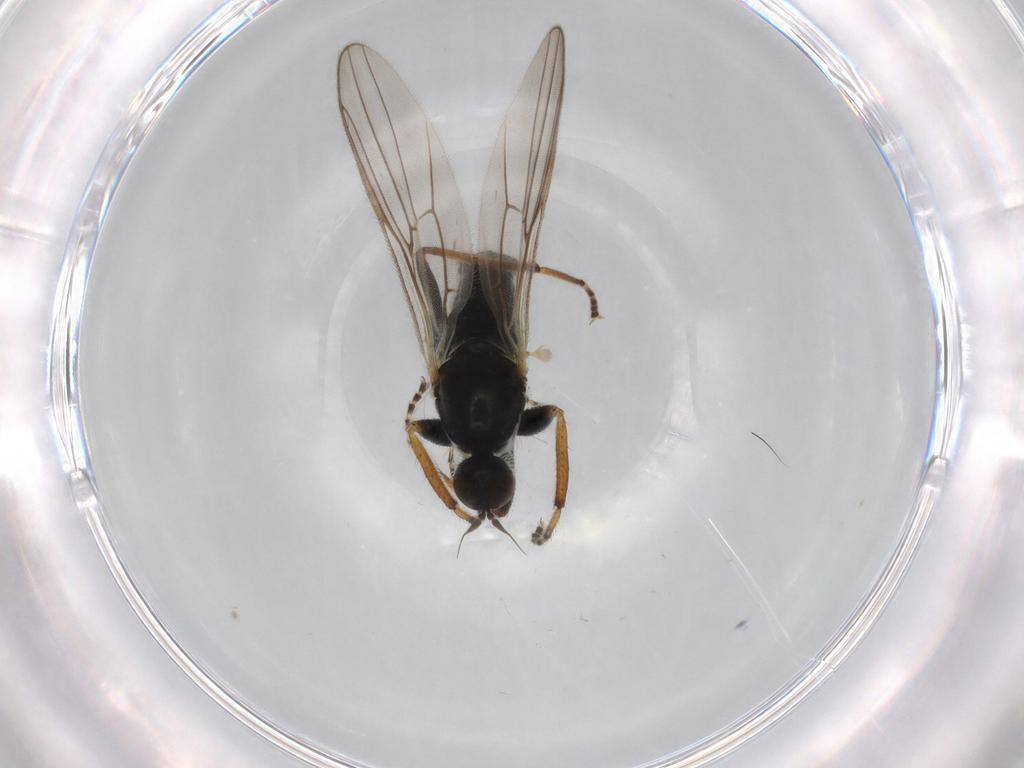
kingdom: Animalia
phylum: Arthropoda
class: Insecta
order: Diptera
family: Hybotidae
